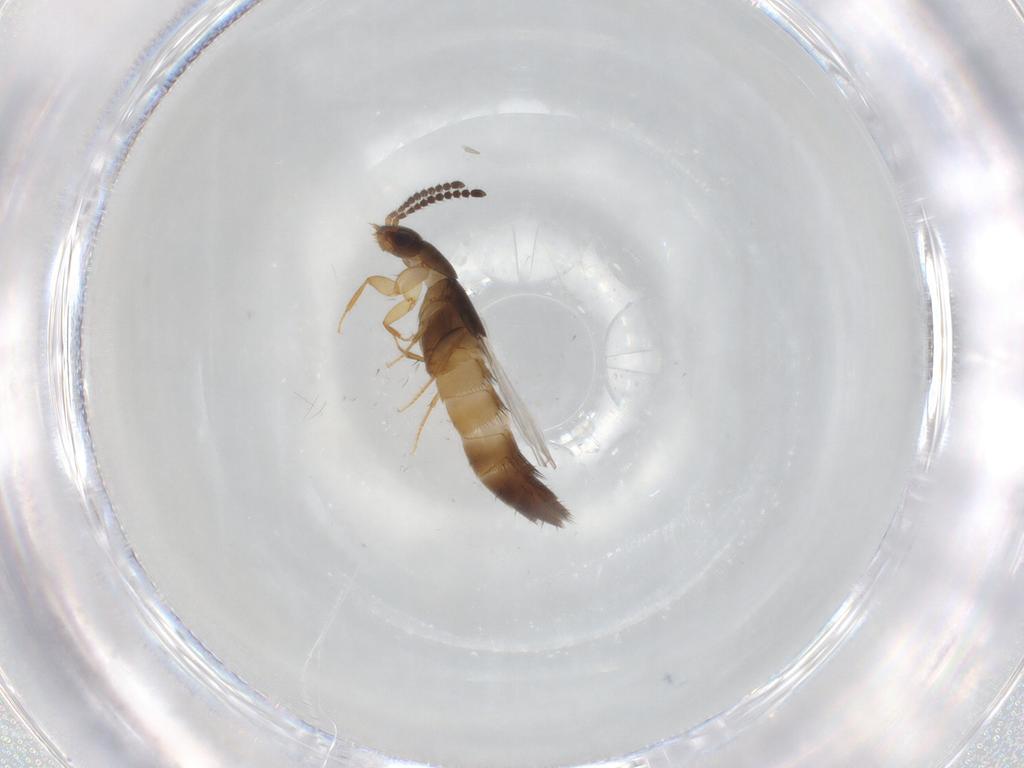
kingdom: Animalia
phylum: Arthropoda
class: Insecta
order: Coleoptera
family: Staphylinidae
